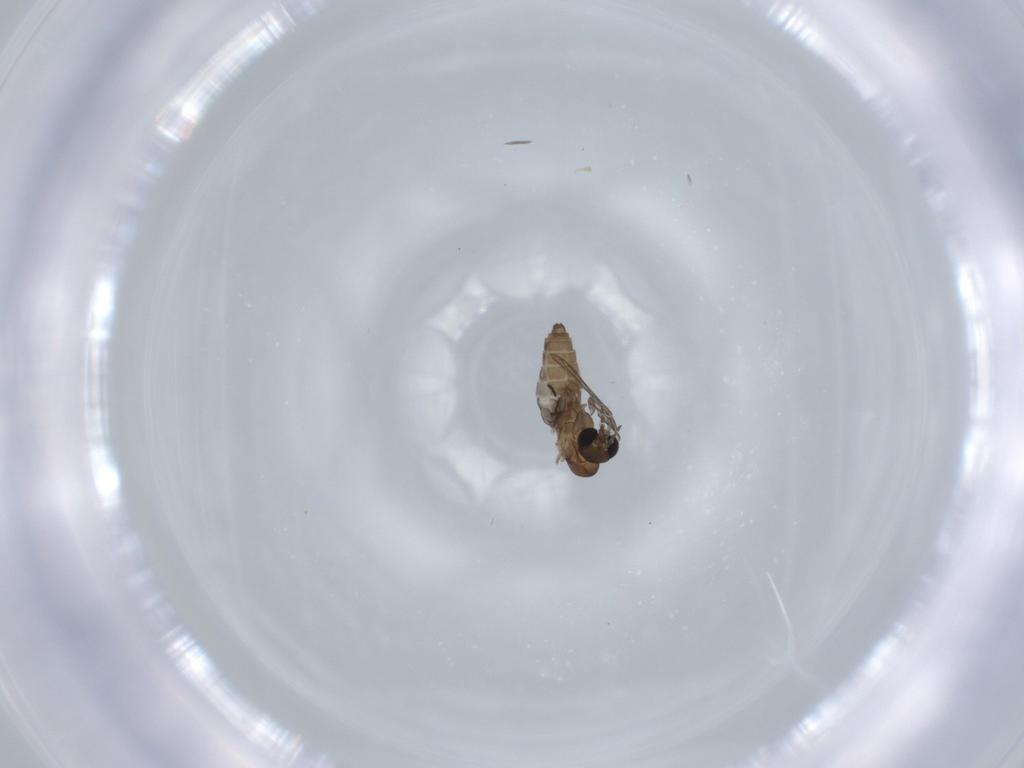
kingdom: Animalia
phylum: Arthropoda
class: Insecta
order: Diptera
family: Psychodidae
